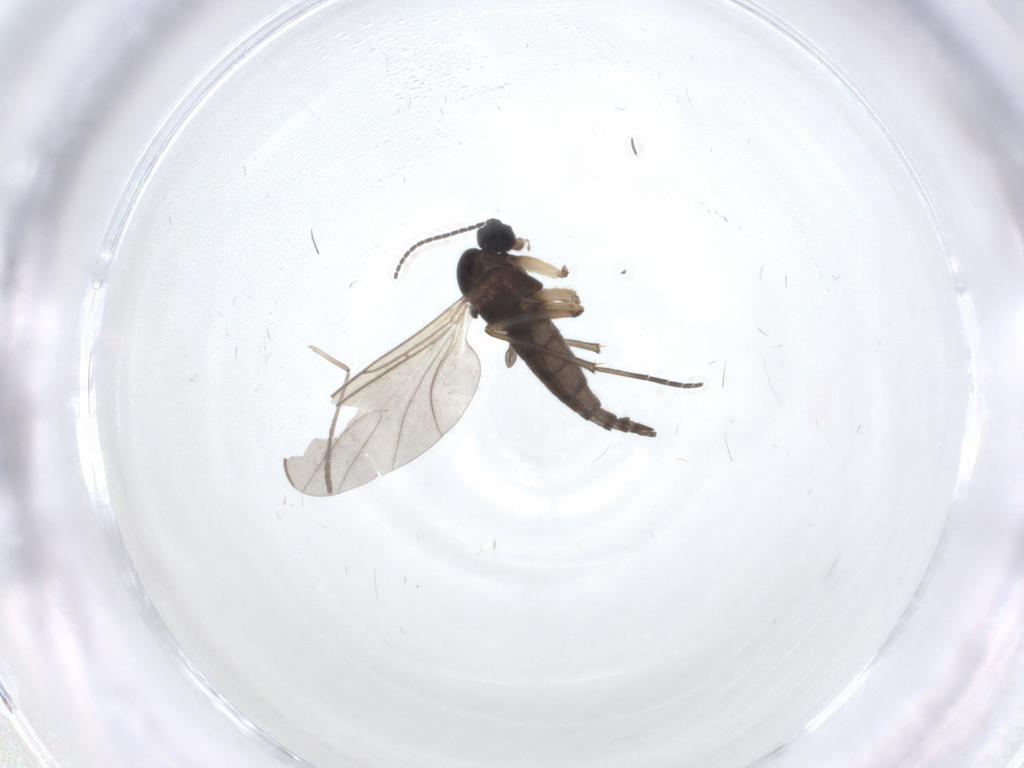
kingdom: Animalia
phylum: Arthropoda
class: Insecta
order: Diptera
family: Sciaridae
